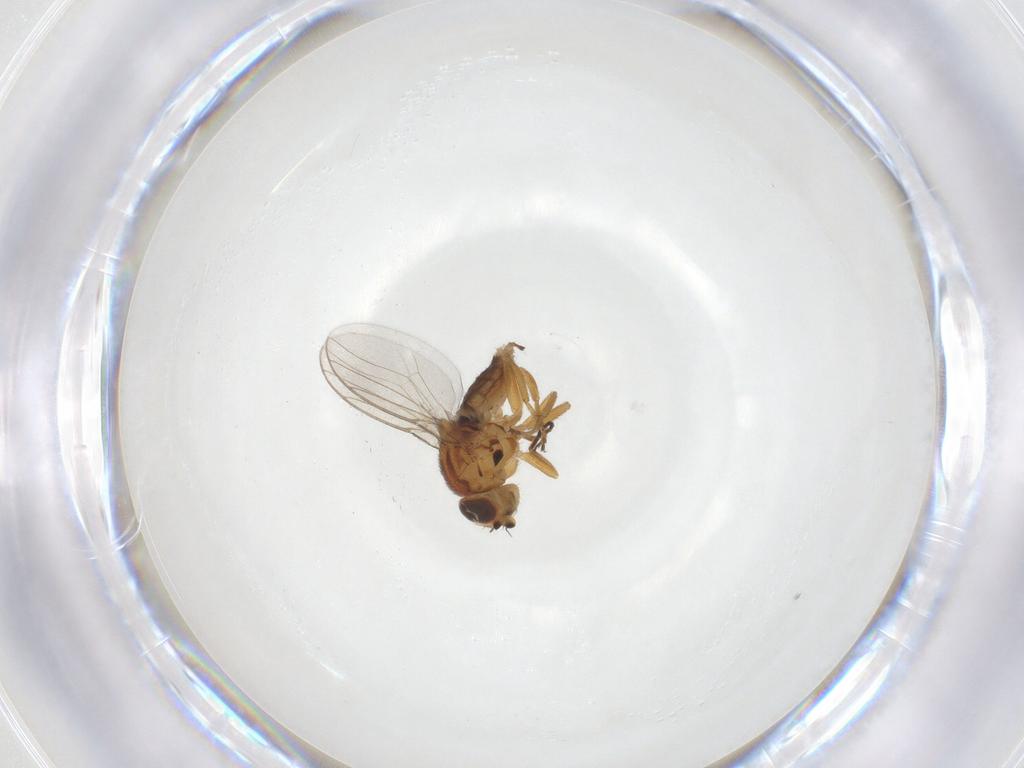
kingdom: Animalia
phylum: Arthropoda
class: Insecta
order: Diptera
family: Chloropidae
